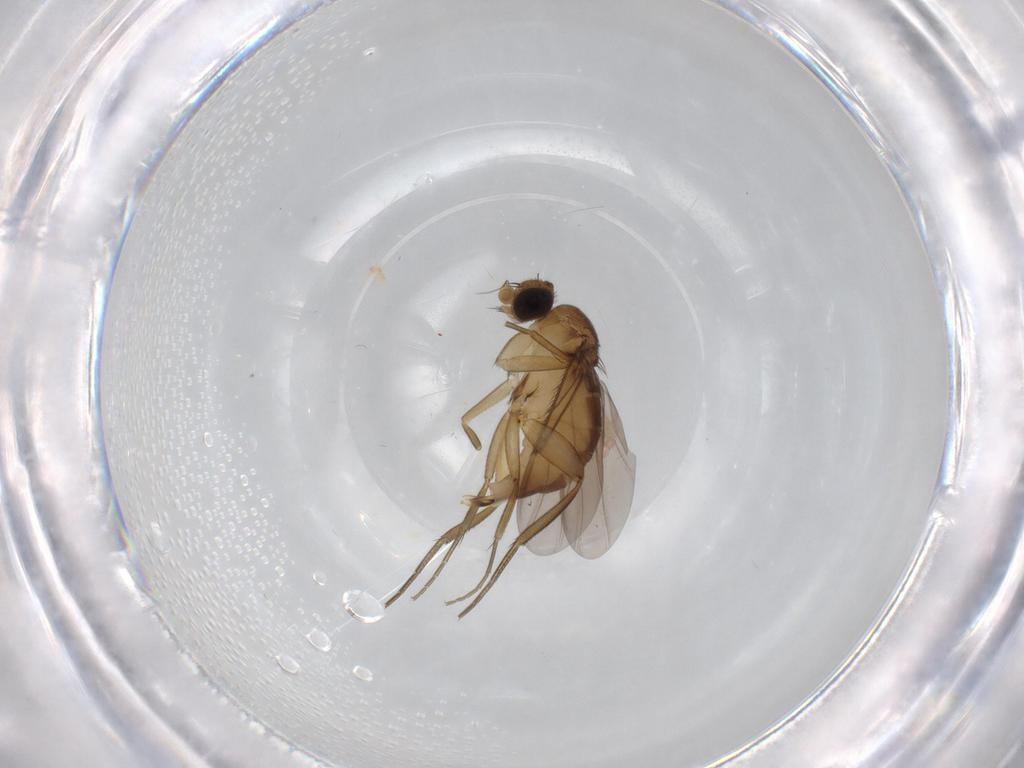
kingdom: Animalia
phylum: Arthropoda
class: Insecta
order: Diptera
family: Phoridae
